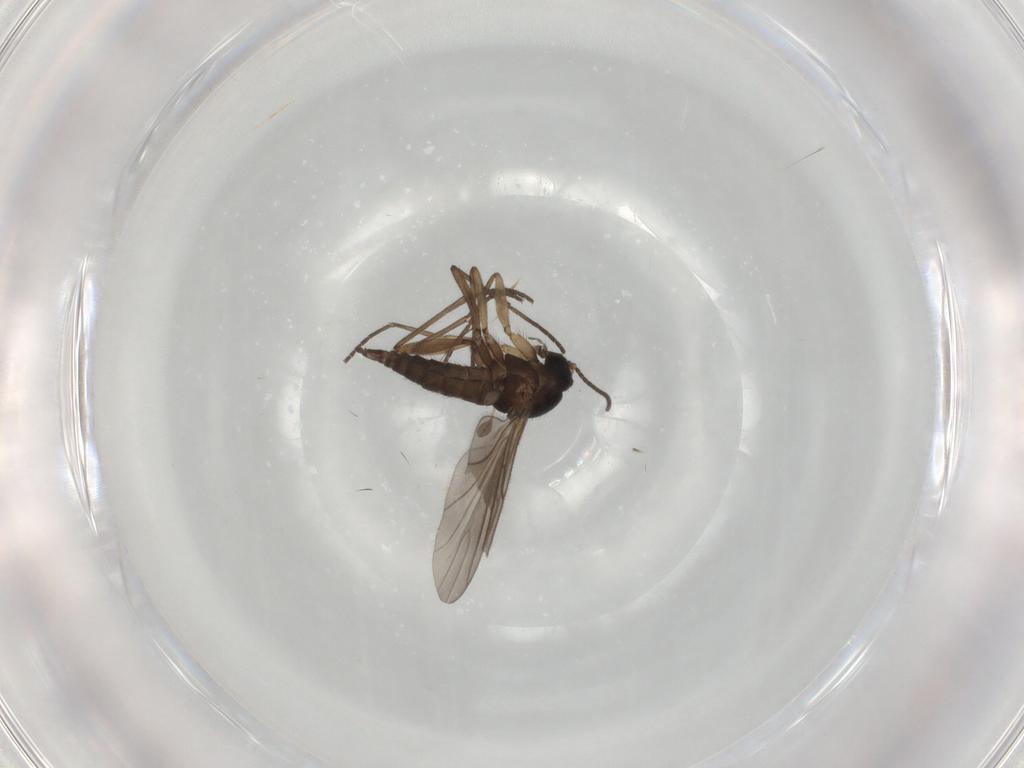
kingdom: Animalia
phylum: Arthropoda
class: Insecta
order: Diptera
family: Sciaridae
